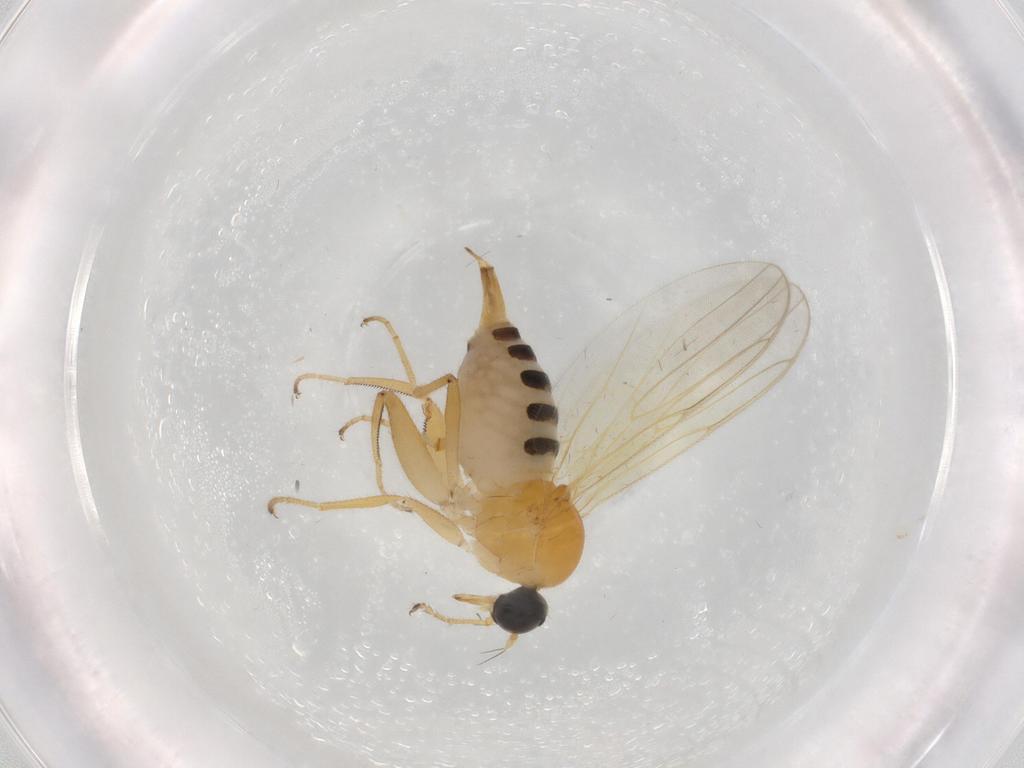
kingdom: Animalia
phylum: Arthropoda
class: Insecta
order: Diptera
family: Hybotidae
